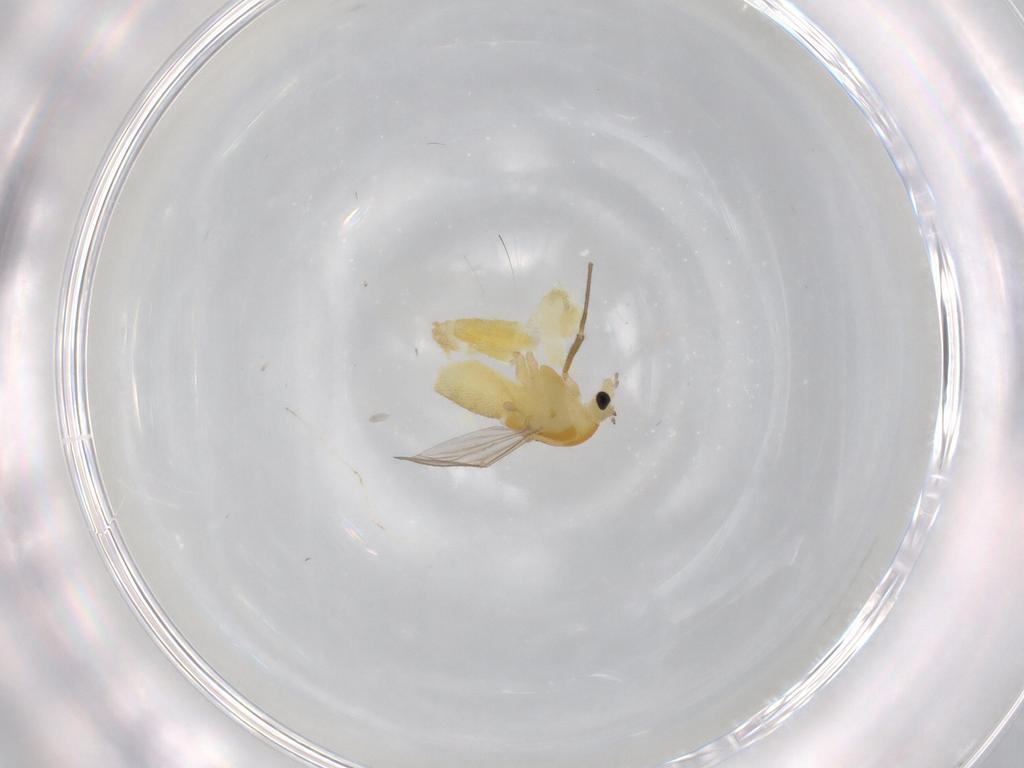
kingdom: Animalia
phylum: Arthropoda
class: Insecta
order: Diptera
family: Chironomidae
